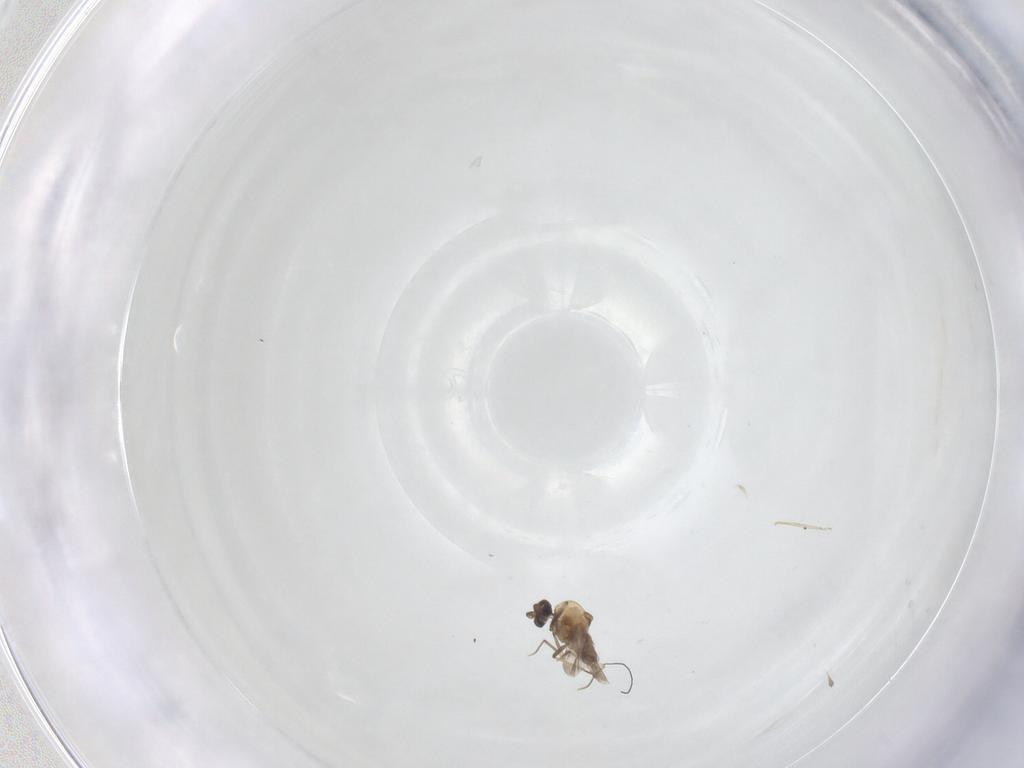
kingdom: Animalia
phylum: Arthropoda
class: Insecta
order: Diptera
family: Ceratopogonidae
